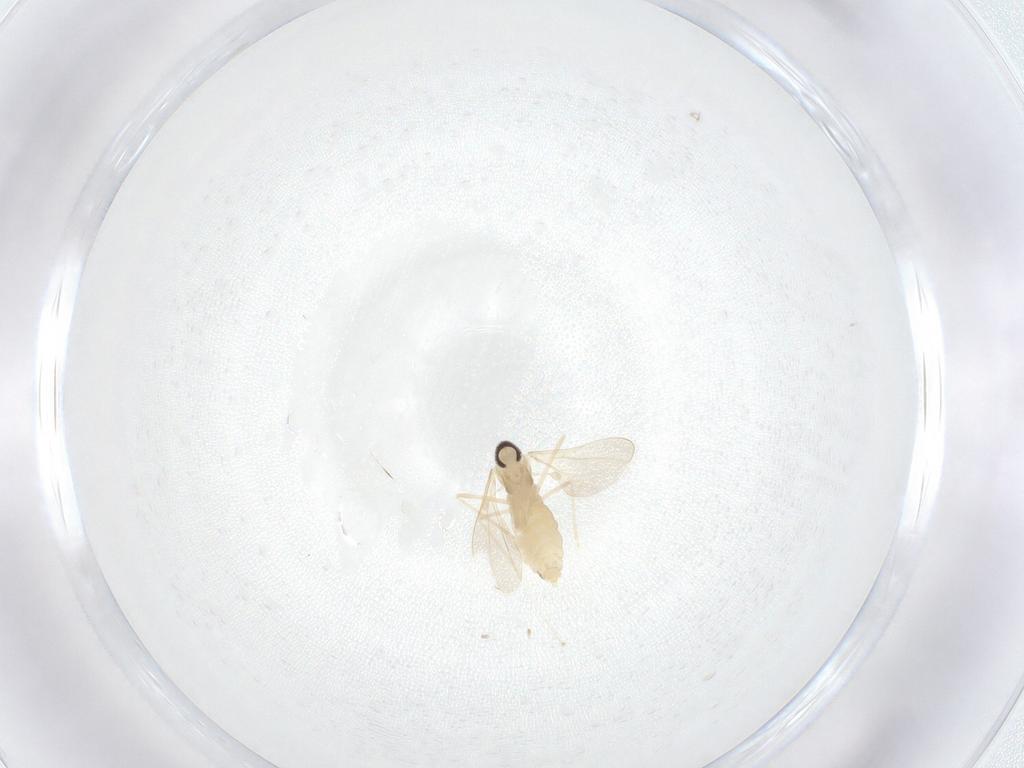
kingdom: Animalia
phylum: Arthropoda
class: Insecta
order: Diptera
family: Cecidomyiidae
